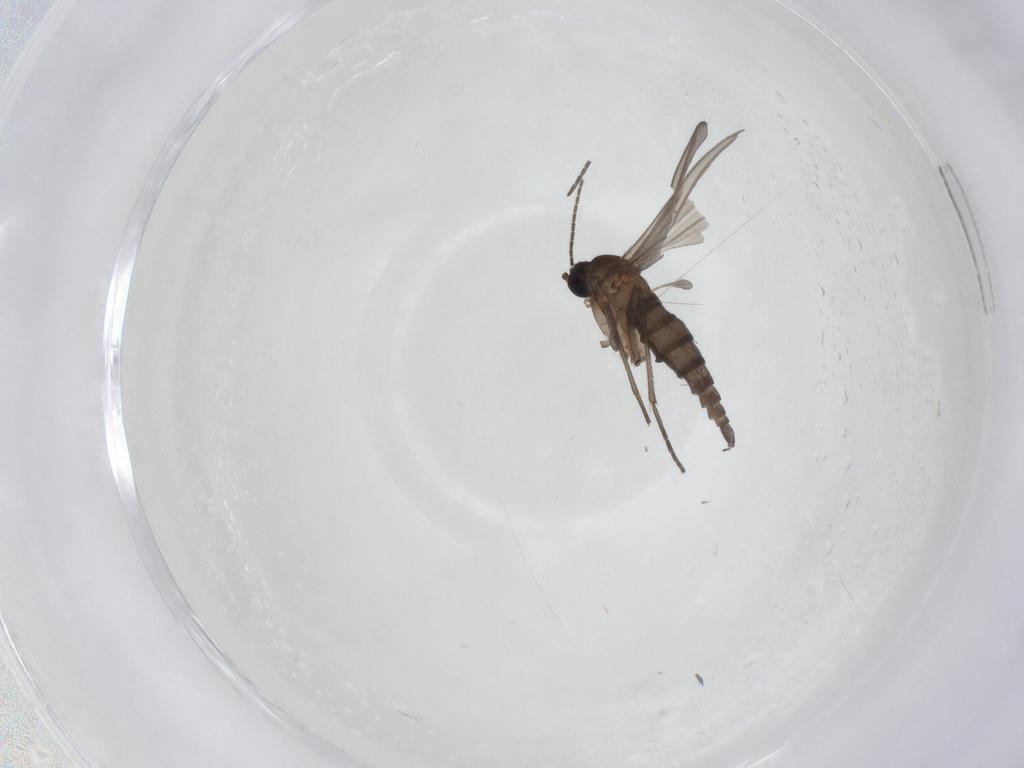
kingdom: Animalia
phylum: Arthropoda
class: Insecta
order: Diptera
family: Sciaridae
